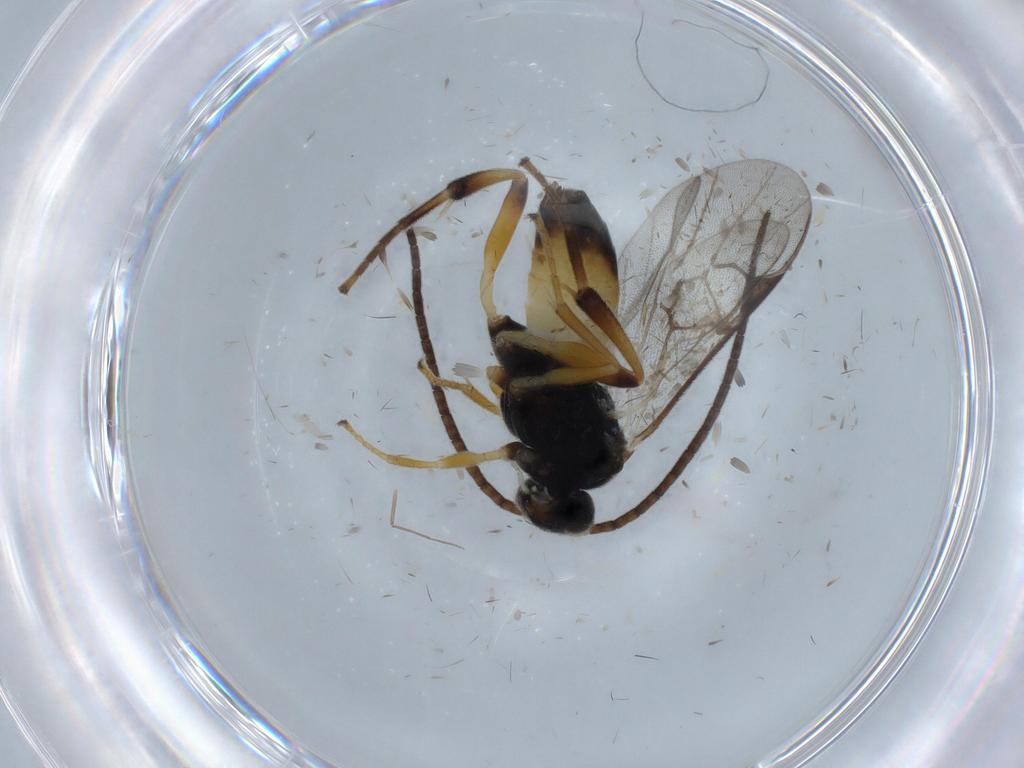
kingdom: Animalia
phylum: Arthropoda
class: Insecta
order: Hymenoptera
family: Braconidae
